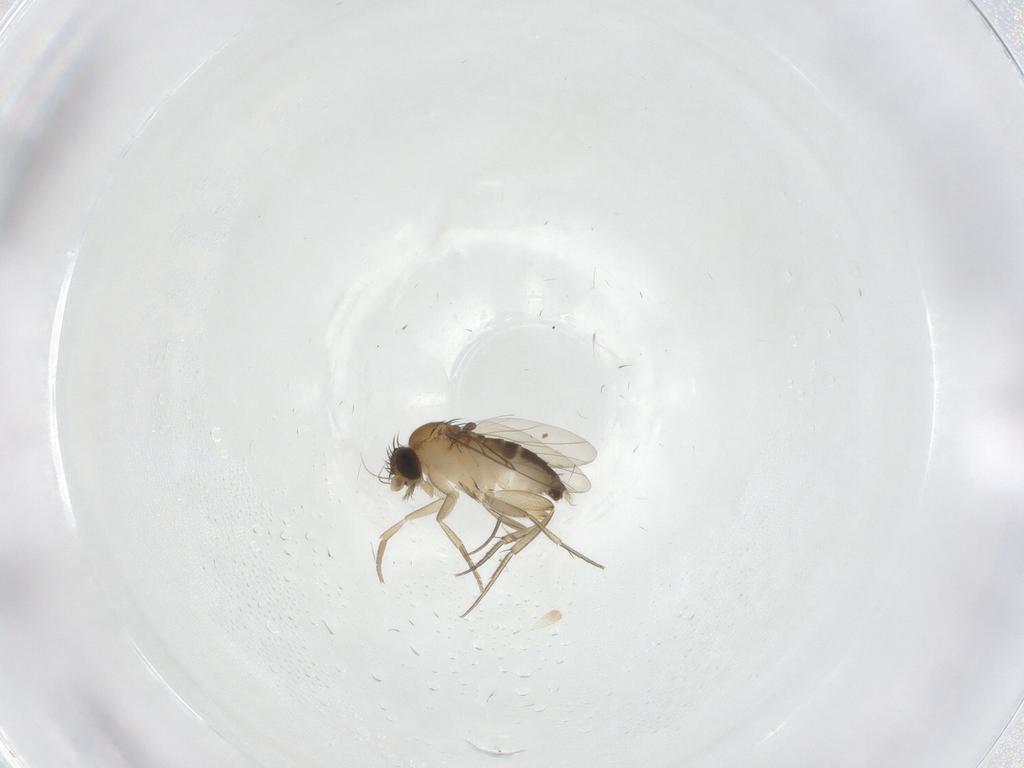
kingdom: Animalia
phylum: Arthropoda
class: Insecta
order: Diptera
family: Phoridae
